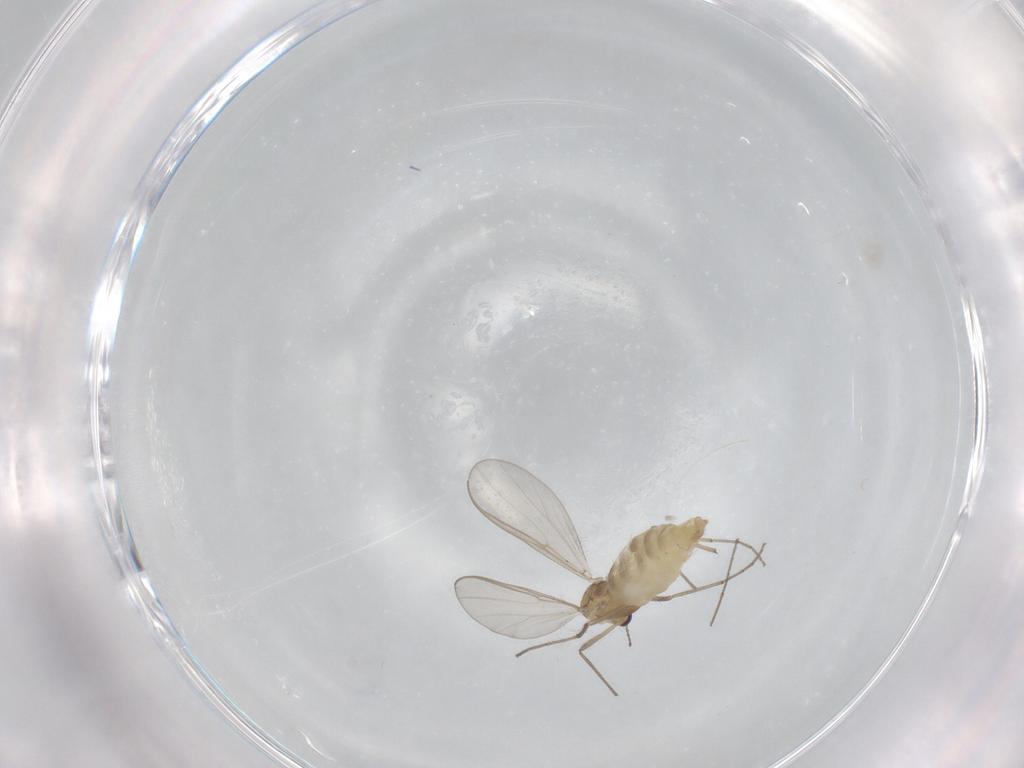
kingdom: Animalia
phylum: Arthropoda
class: Insecta
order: Diptera
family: Chironomidae
